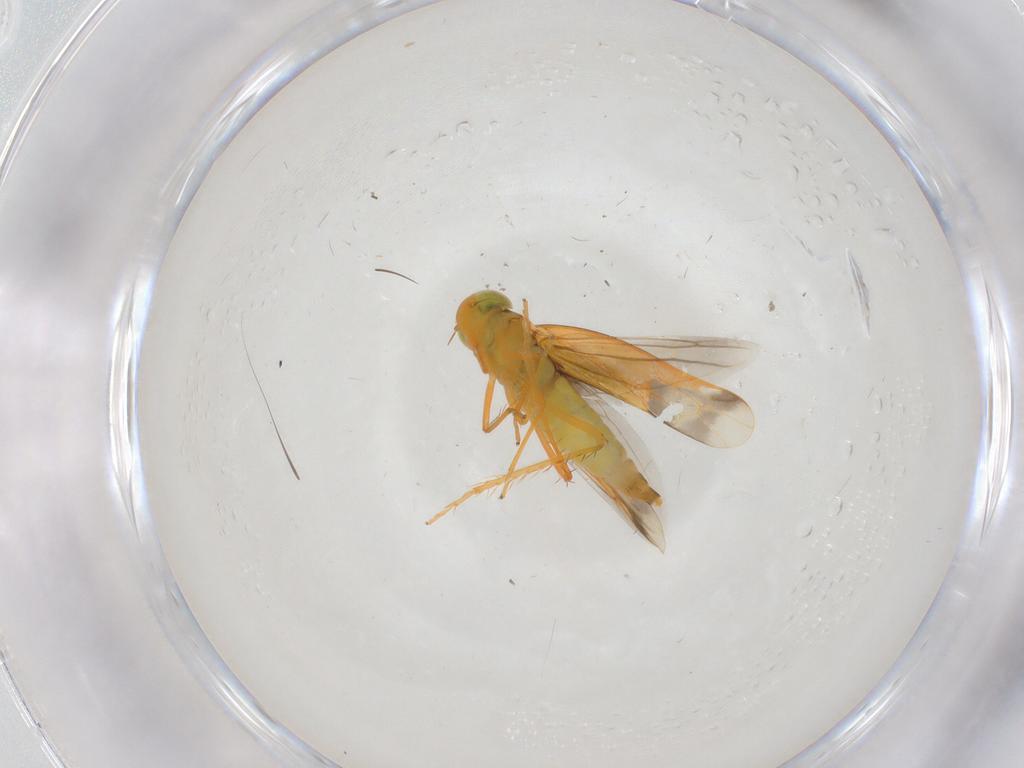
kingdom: Animalia
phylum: Arthropoda
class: Insecta
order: Hemiptera
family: Cicadellidae
